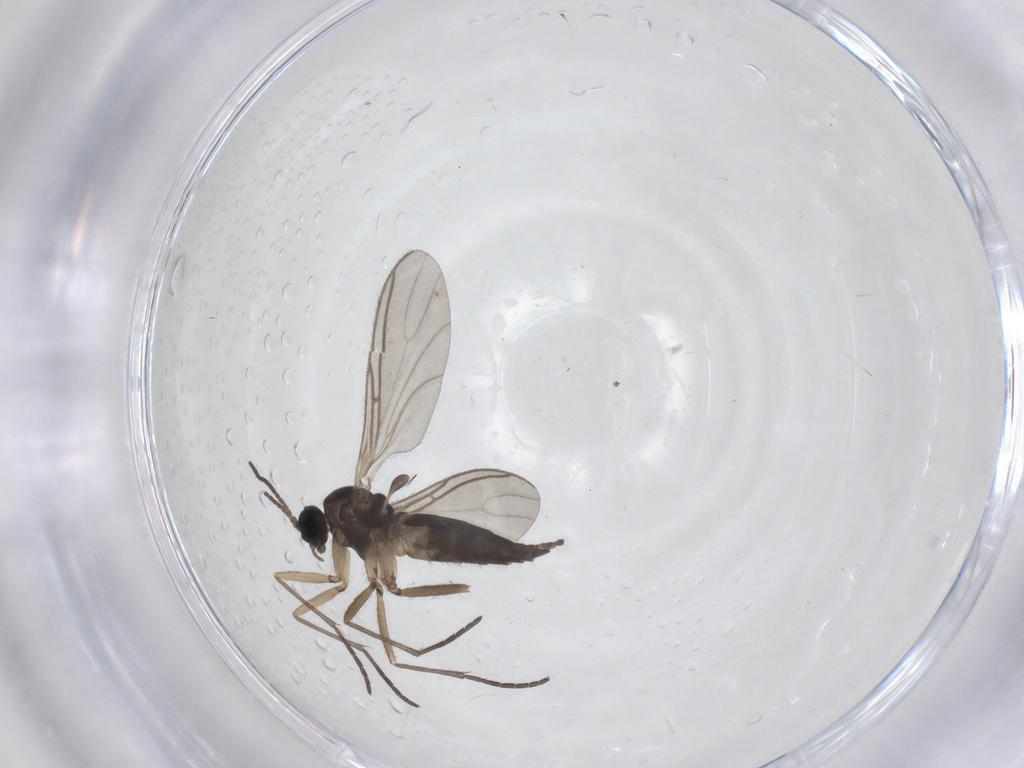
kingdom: Animalia
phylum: Arthropoda
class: Insecta
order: Diptera
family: Sciaridae
